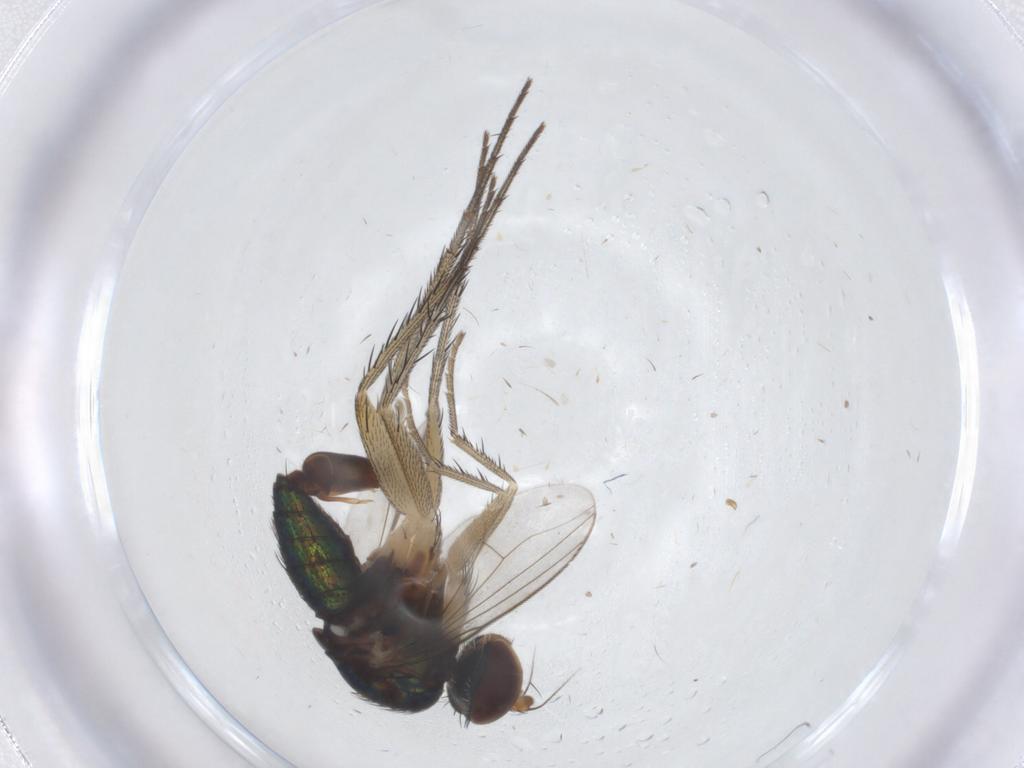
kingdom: Animalia
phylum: Arthropoda
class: Insecta
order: Diptera
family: Dolichopodidae
